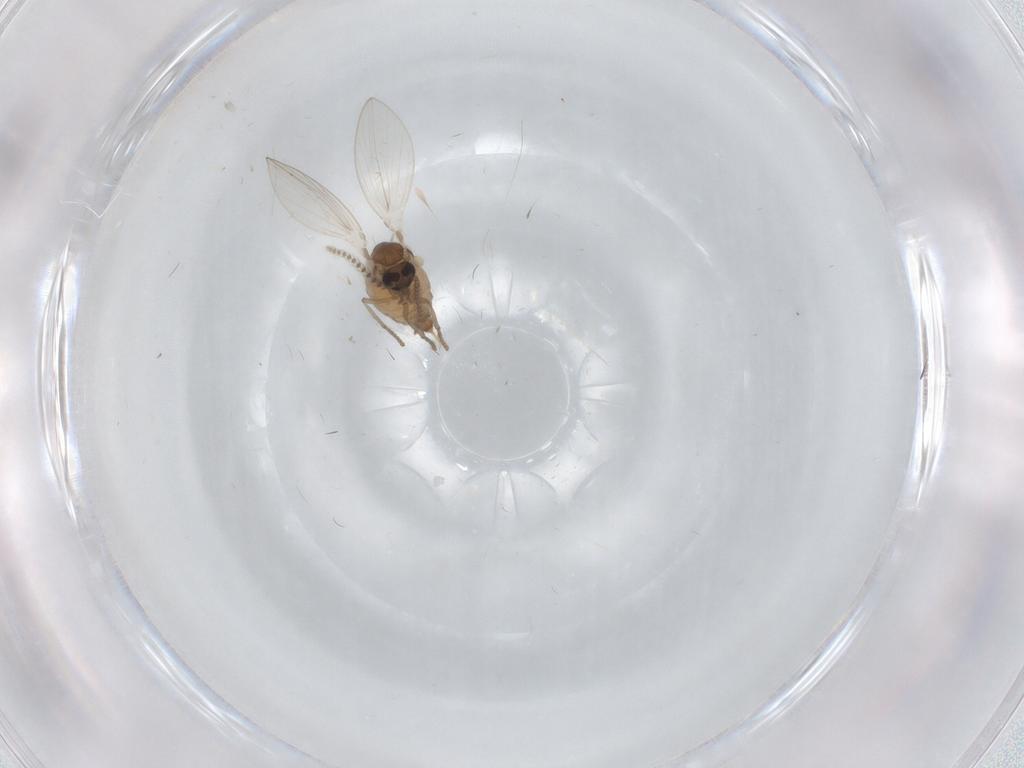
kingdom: Animalia
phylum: Arthropoda
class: Insecta
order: Diptera
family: Psychodidae
